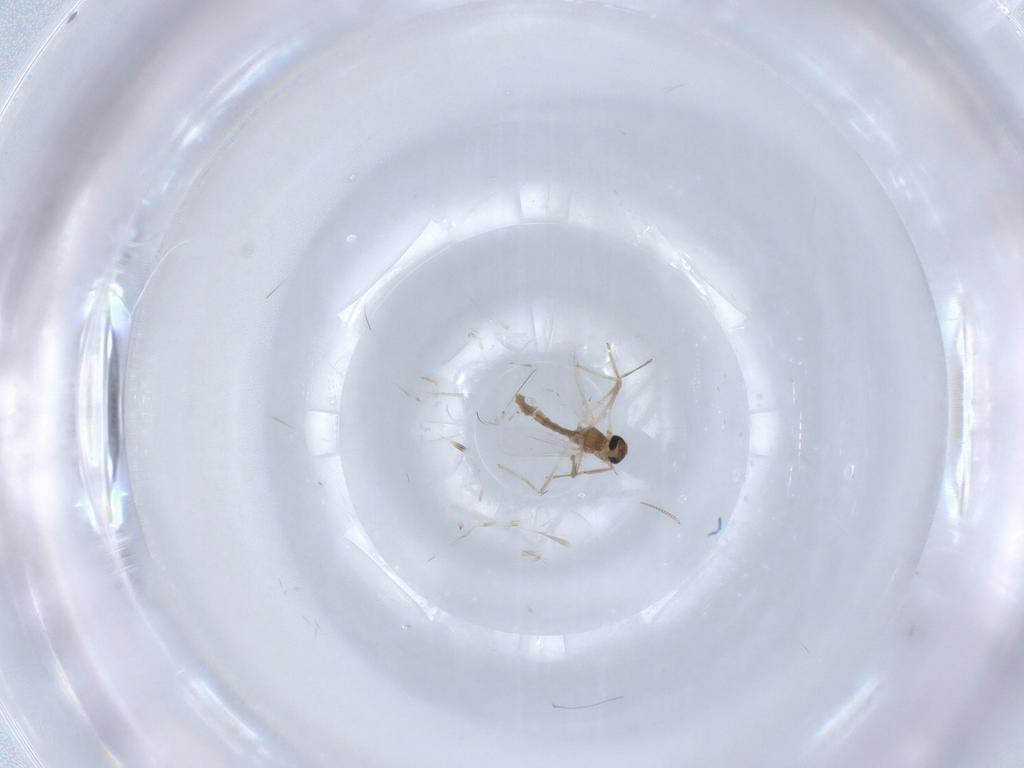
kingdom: Animalia
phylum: Arthropoda
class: Insecta
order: Diptera
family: Chironomidae
